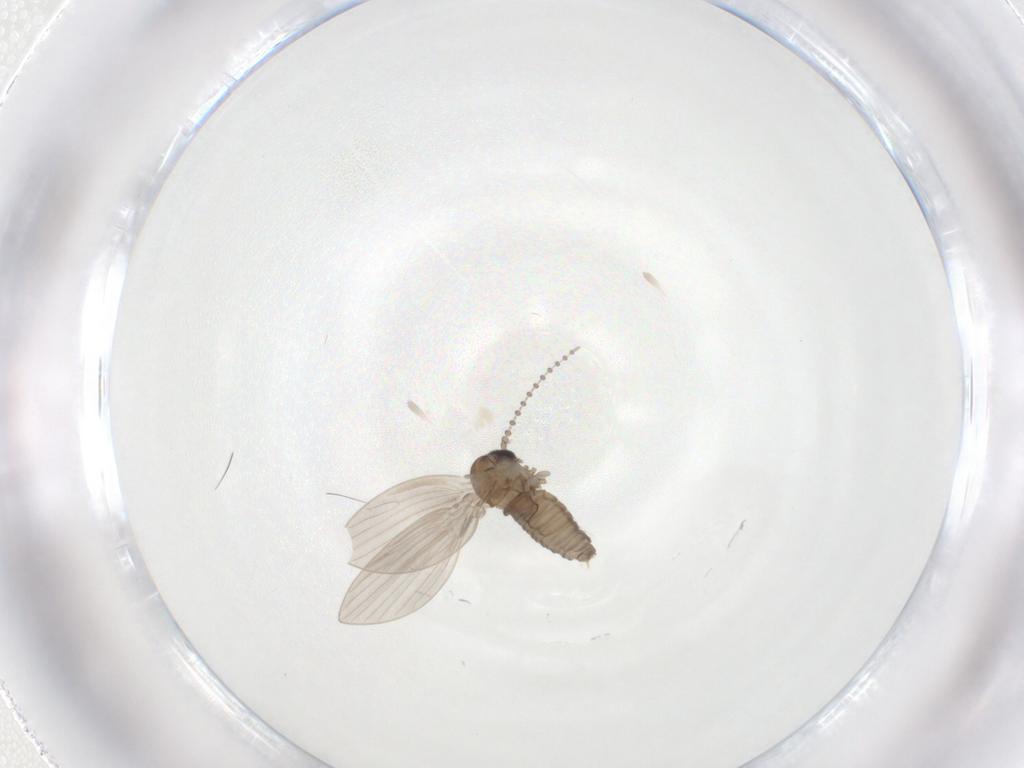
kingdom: Animalia
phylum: Arthropoda
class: Insecta
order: Diptera
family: Psychodidae
